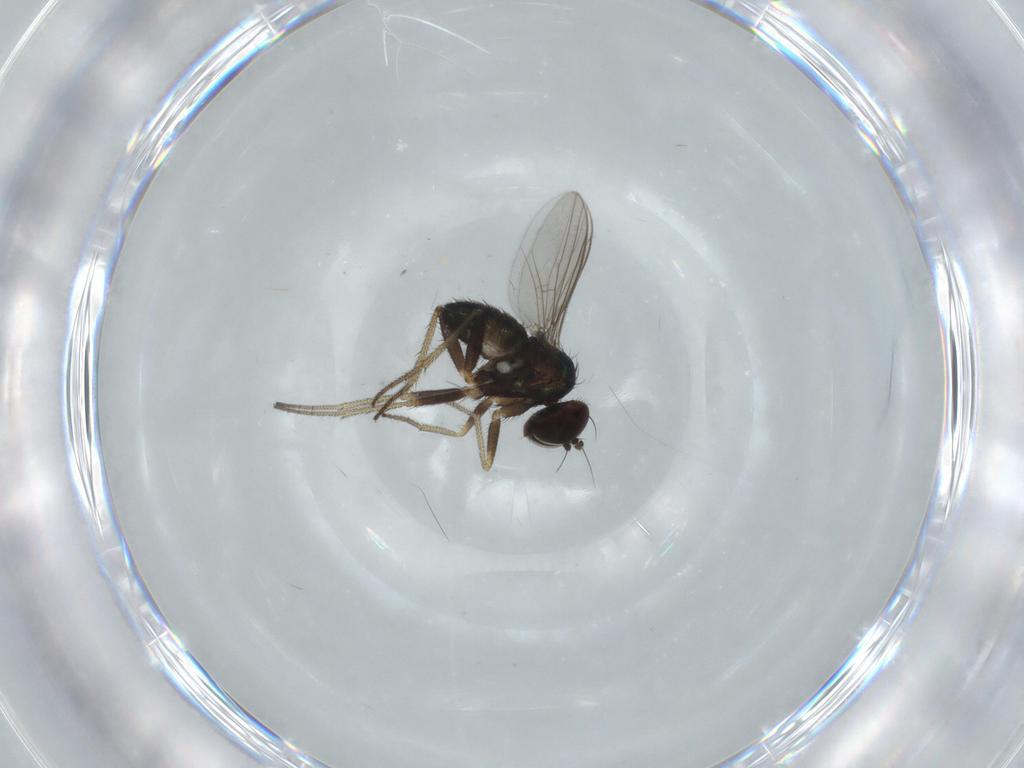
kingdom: Animalia
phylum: Arthropoda
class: Insecta
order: Diptera
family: Dolichopodidae
